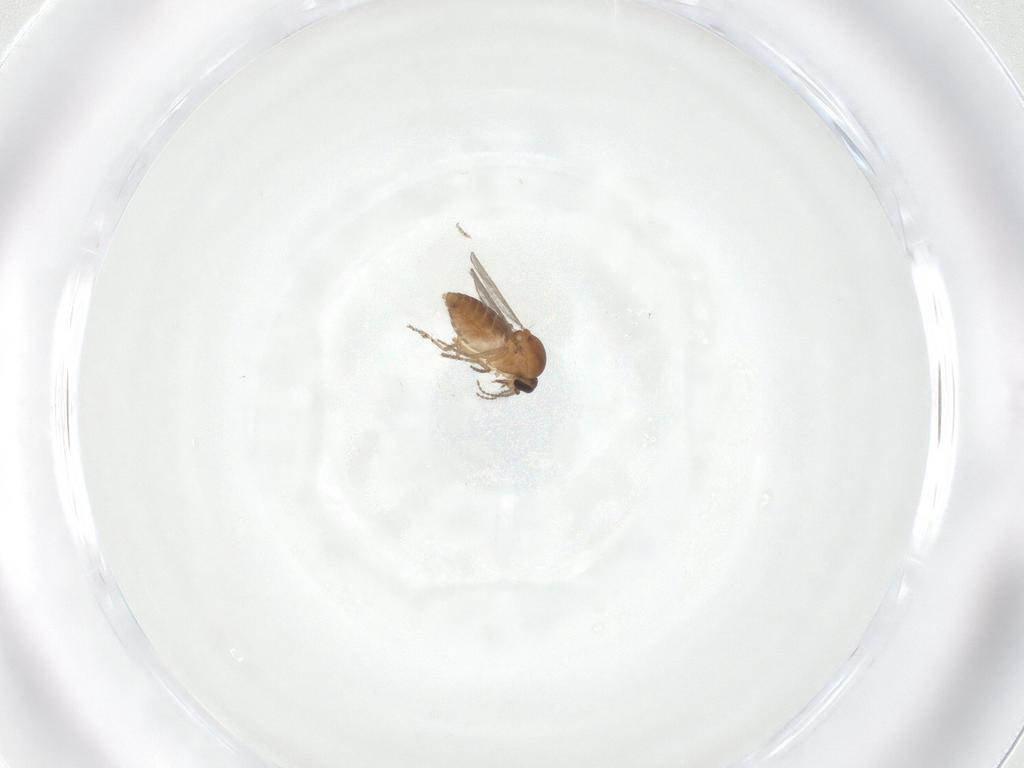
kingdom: Animalia
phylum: Arthropoda
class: Insecta
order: Diptera
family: Ceratopogonidae
